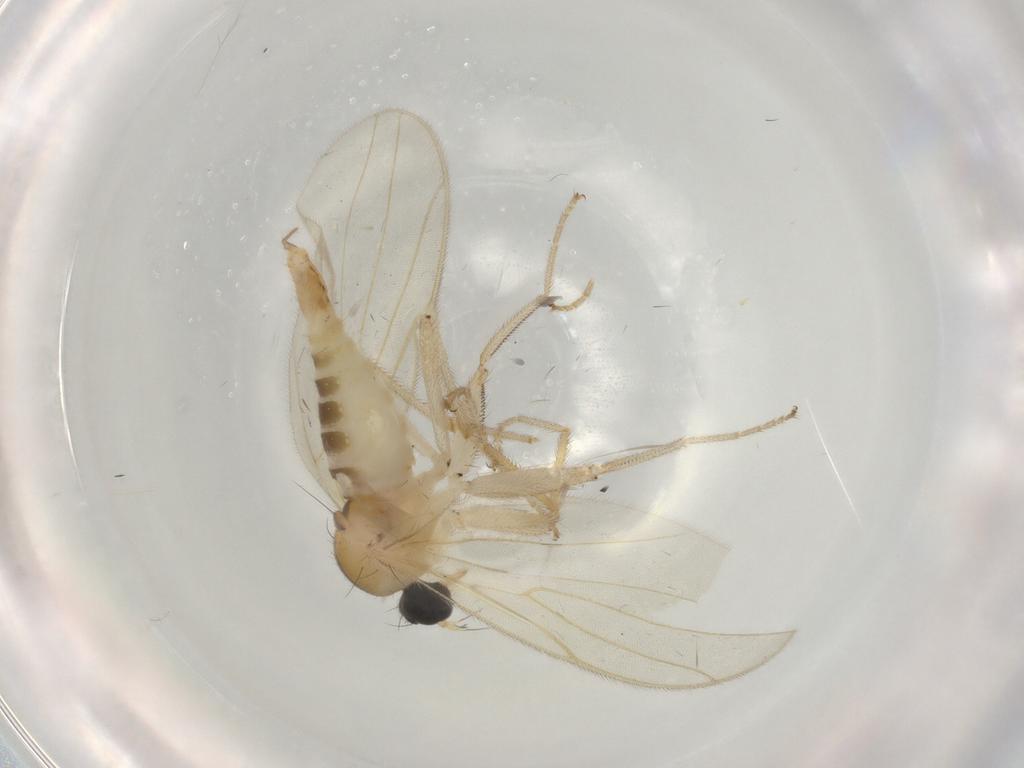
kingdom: Animalia
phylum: Arthropoda
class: Insecta
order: Diptera
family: Hybotidae
